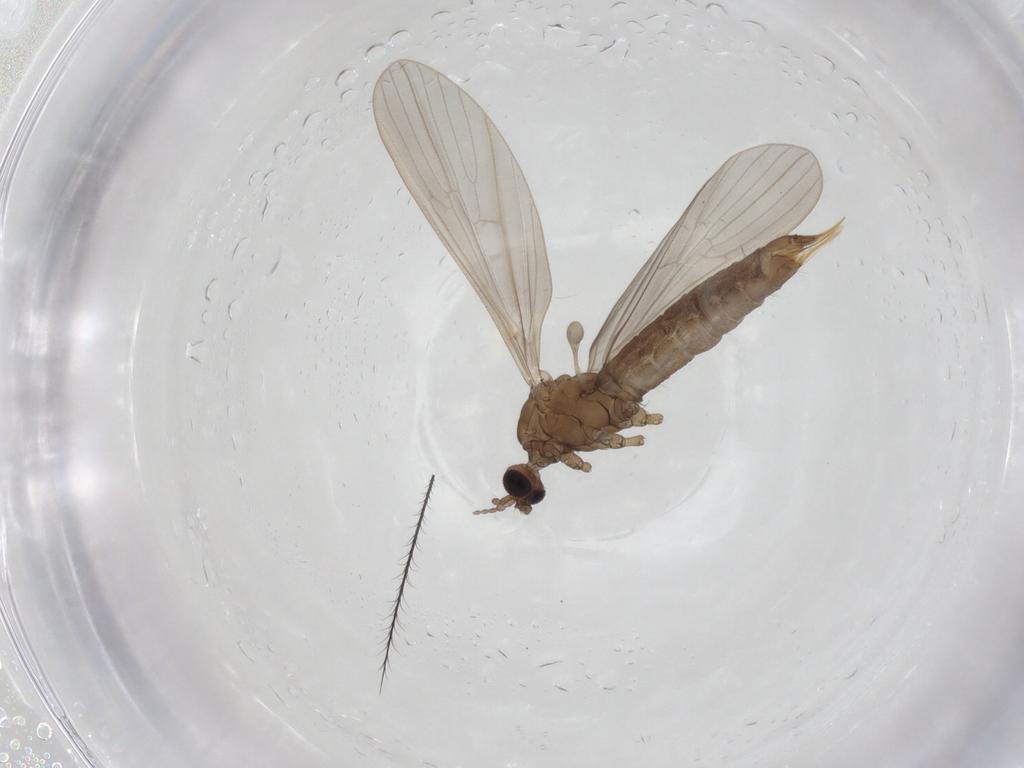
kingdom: Animalia
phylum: Arthropoda
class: Insecta
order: Diptera
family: Limoniidae
